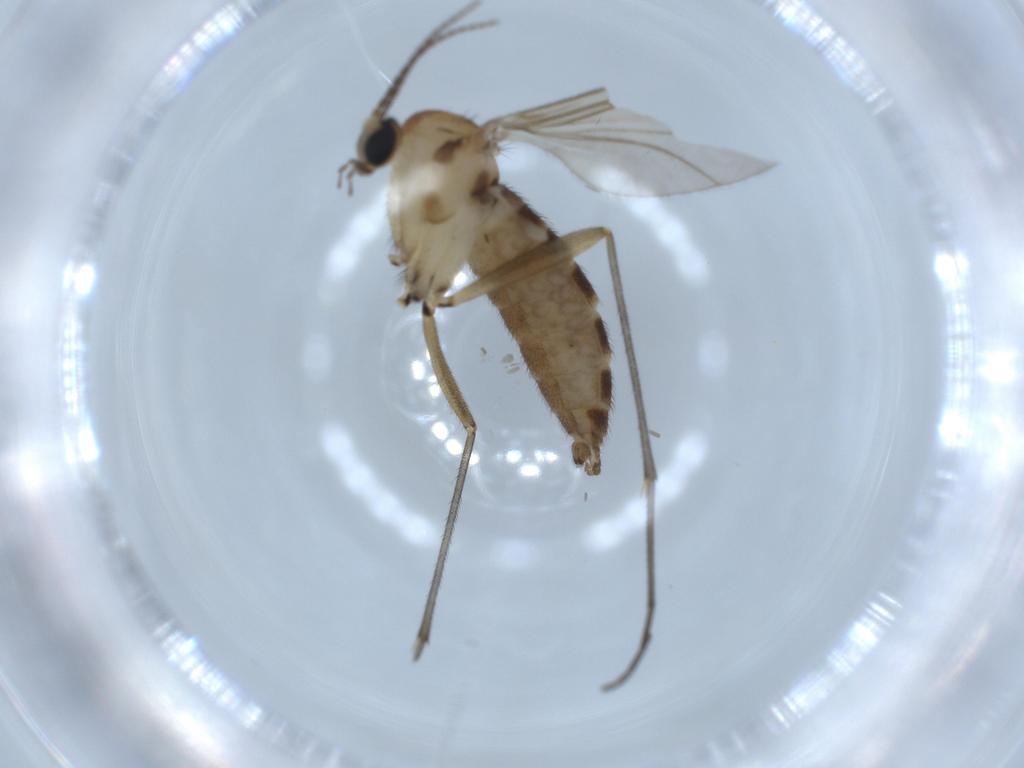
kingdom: Animalia
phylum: Arthropoda
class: Insecta
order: Diptera
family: Sciaridae
